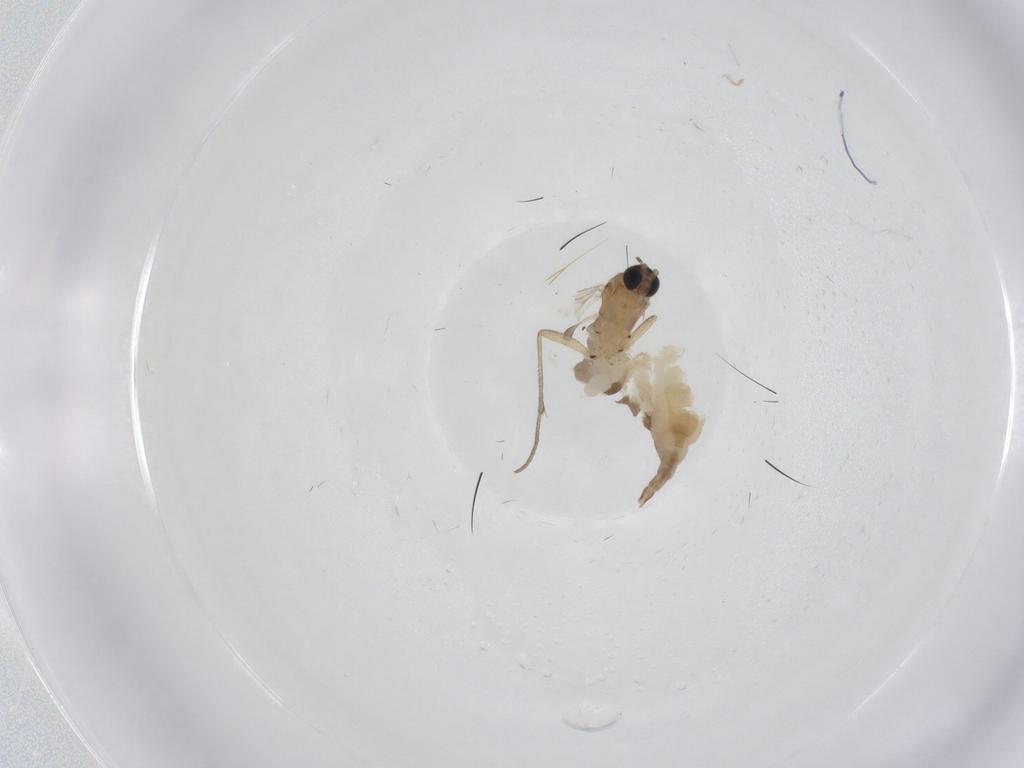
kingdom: Animalia
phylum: Arthropoda
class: Insecta
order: Diptera
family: Sciaridae
